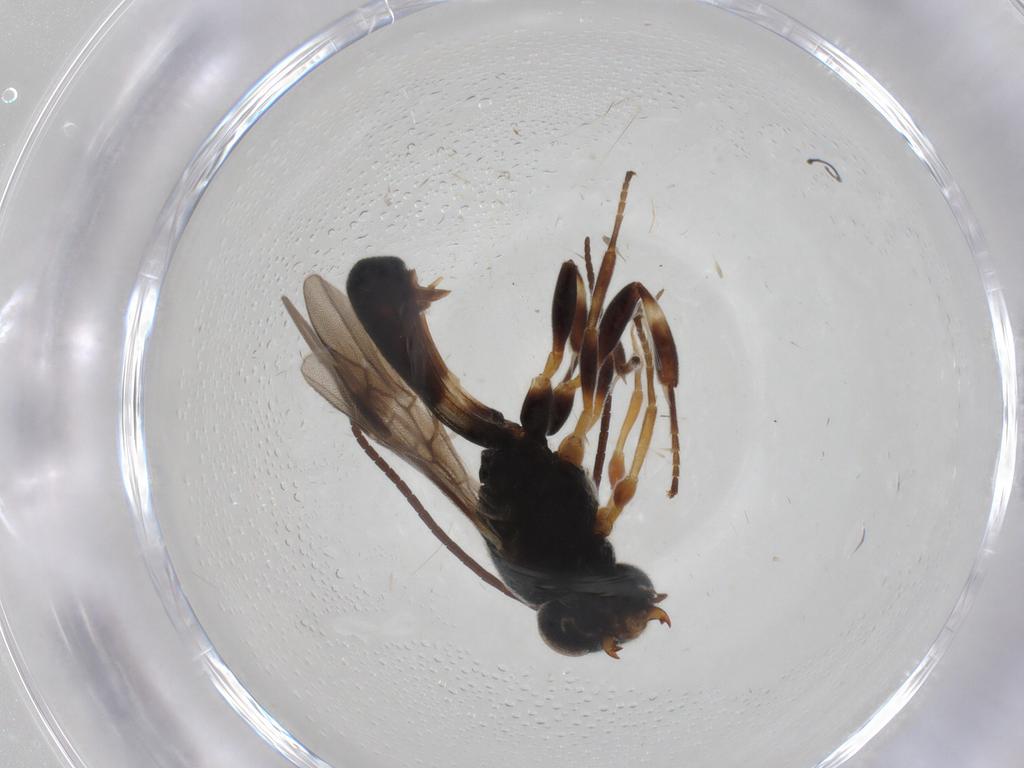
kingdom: Animalia
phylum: Arthropoda
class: Insecta
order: Hymenoptera
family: Braconidae
